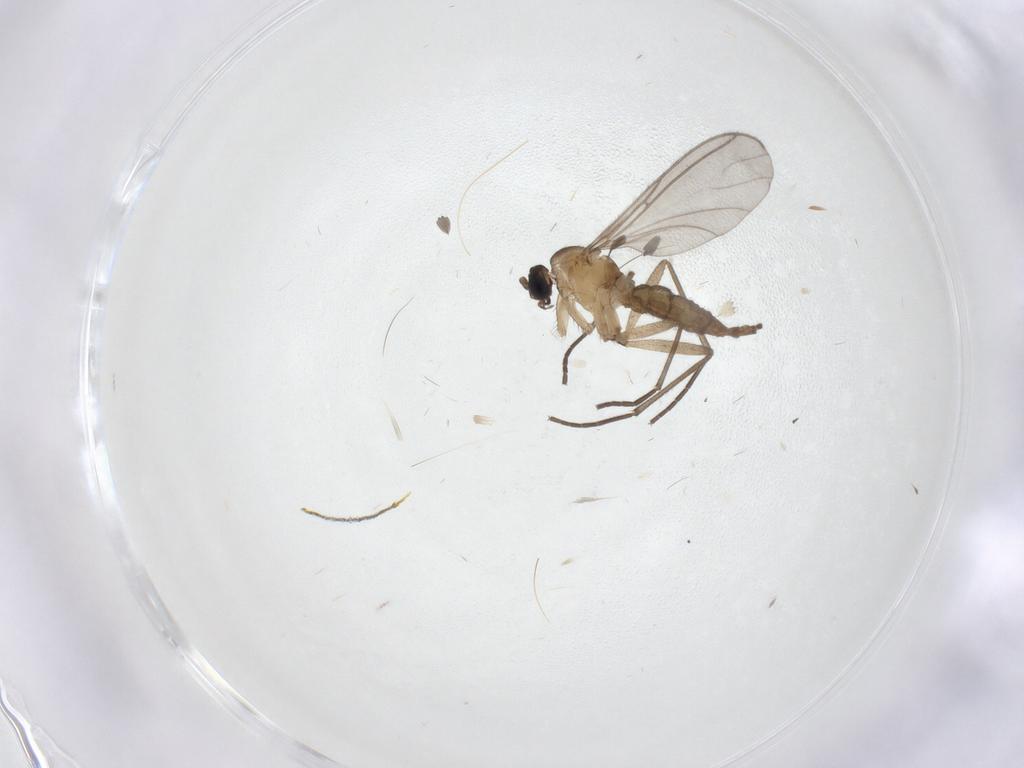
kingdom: Animalia
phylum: Arthropoda
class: Insecta
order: Diptera
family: Sciaridae
